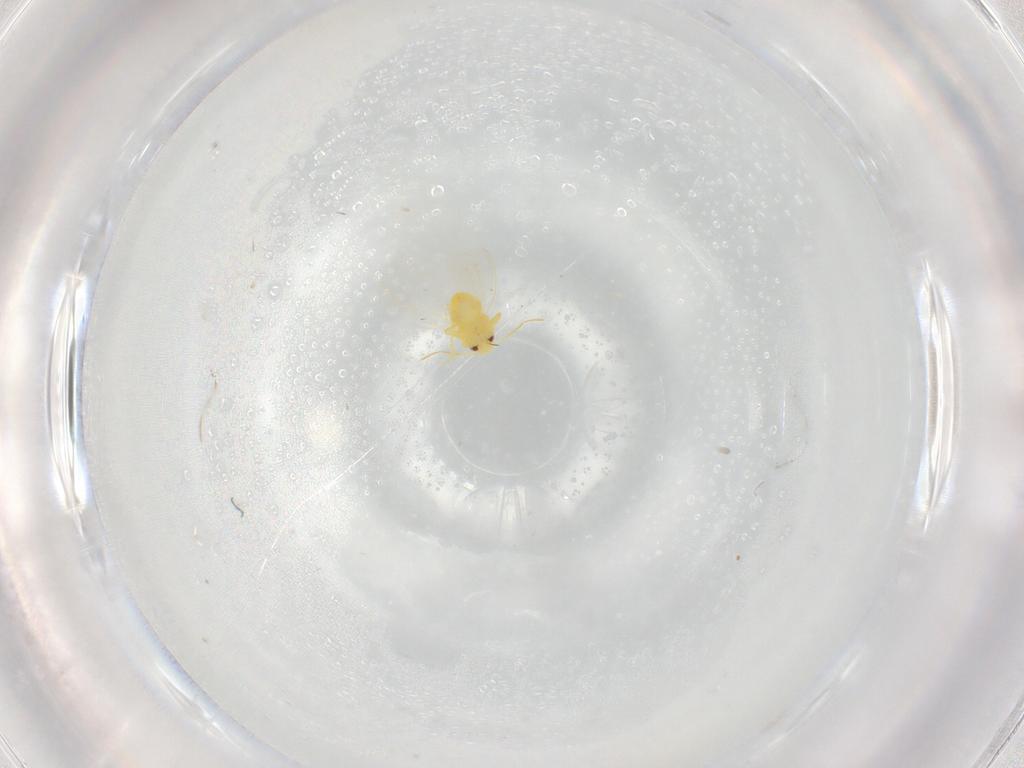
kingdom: Animalia
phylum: Arthropoda
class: Insecta
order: Hemiptera
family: Aleyrodidae
